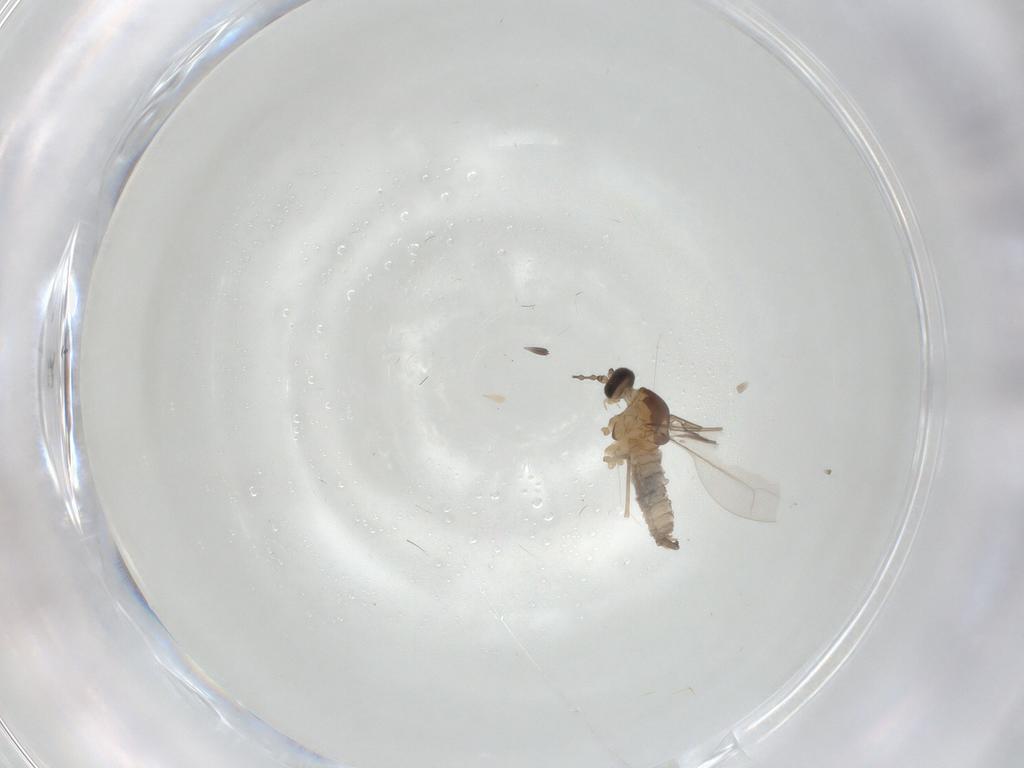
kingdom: Animalia
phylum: Arthropoda
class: Insecta
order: Diptera
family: Cecidomyiidae
